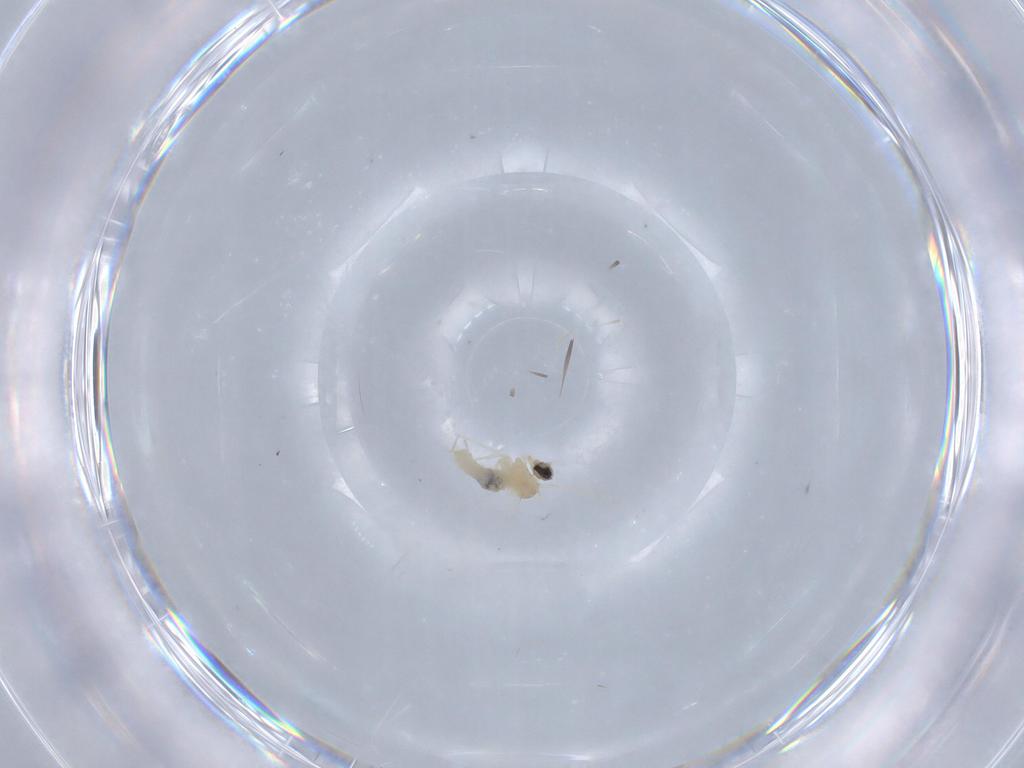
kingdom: Animalia
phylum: Arthropoda
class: Insecta
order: Diptera
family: Cecidomyiidae
